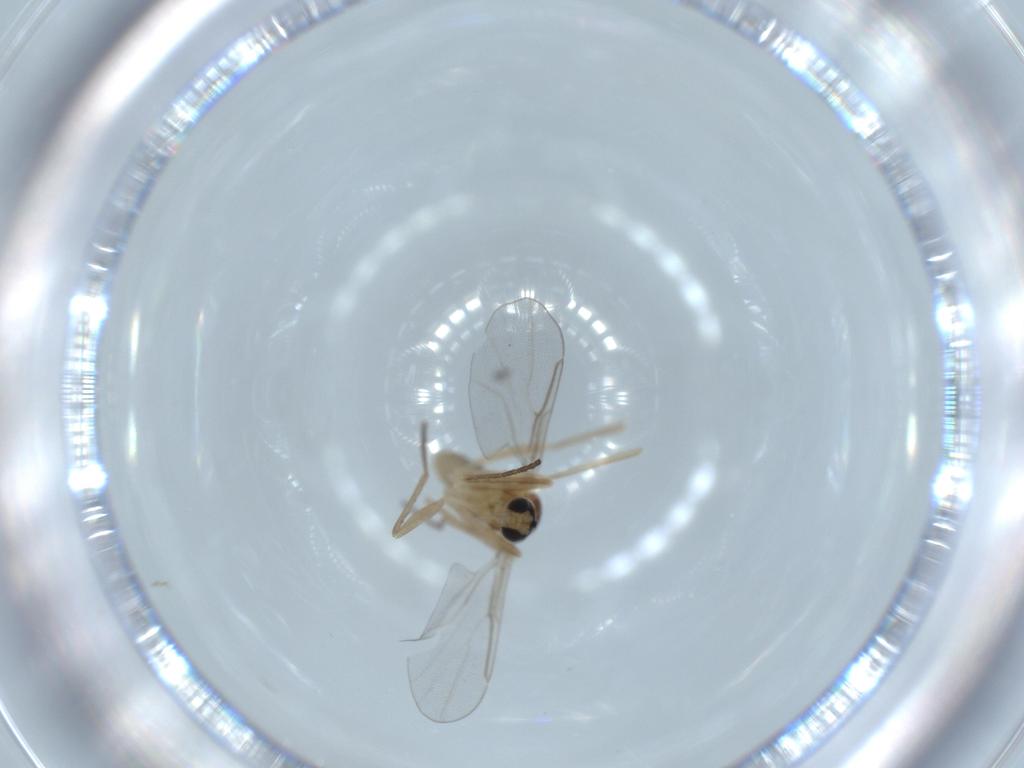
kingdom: Animalia
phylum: Arthropoda
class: Insecta
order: Diptera
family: Cecidomyiidae
